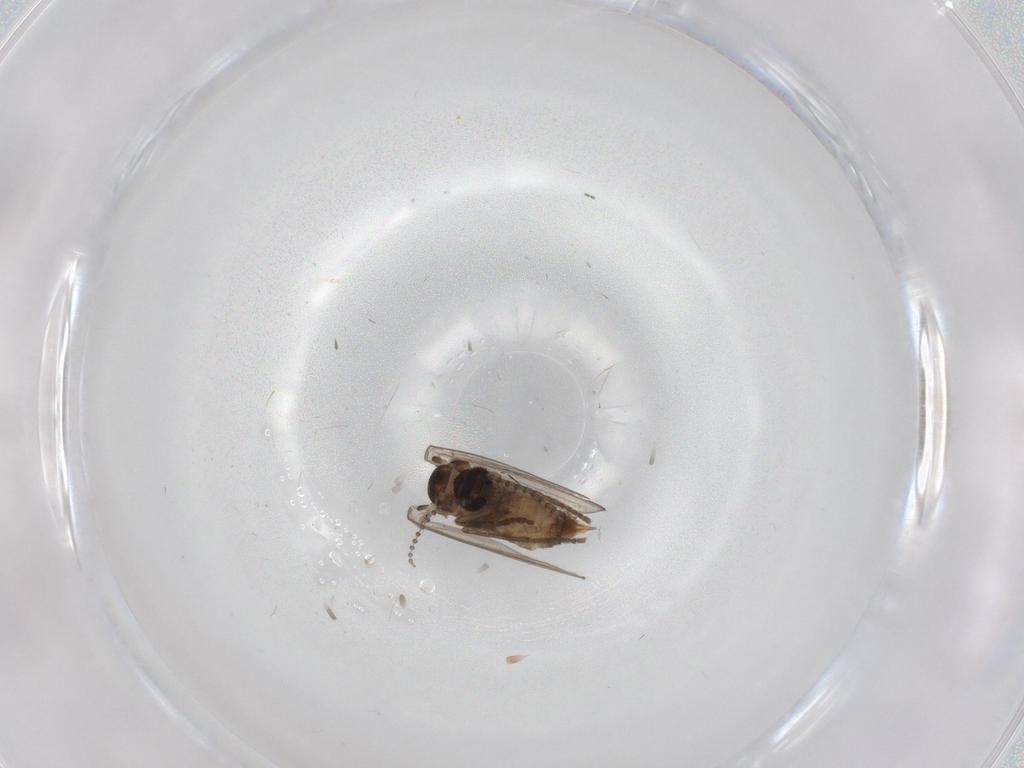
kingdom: Animalia
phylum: Arthropoda
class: Insecta
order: Diptera
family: Psychodidae
